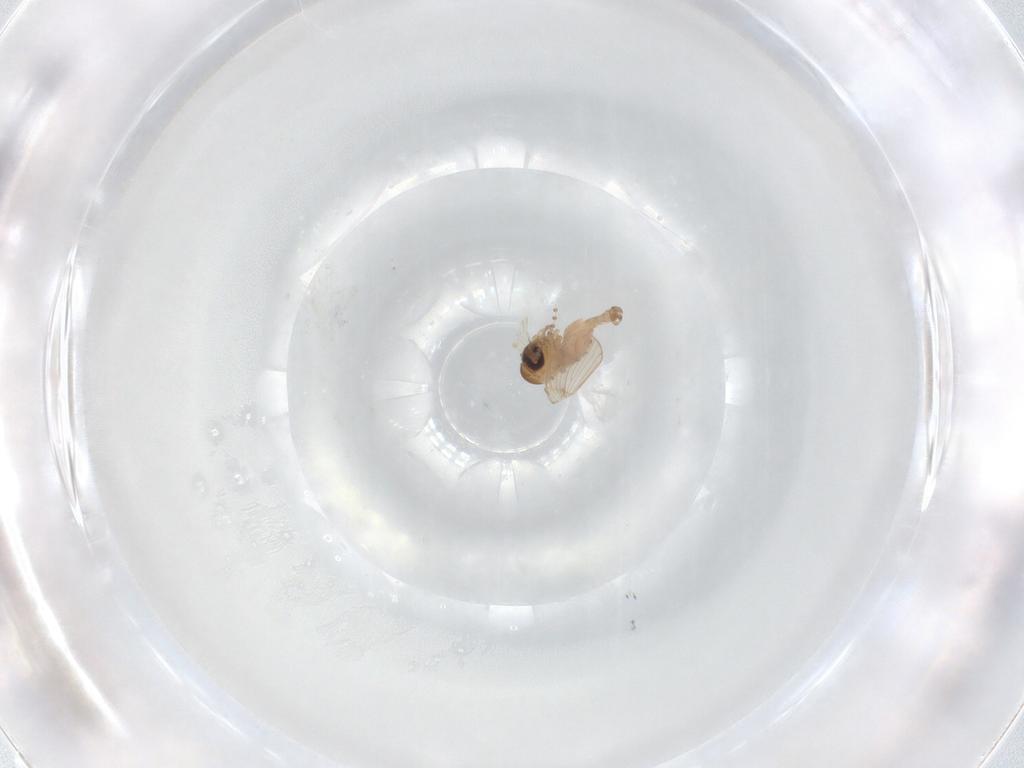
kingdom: Animalia
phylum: Arthropoda
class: Insecta
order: Diptera
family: Psychodidae
